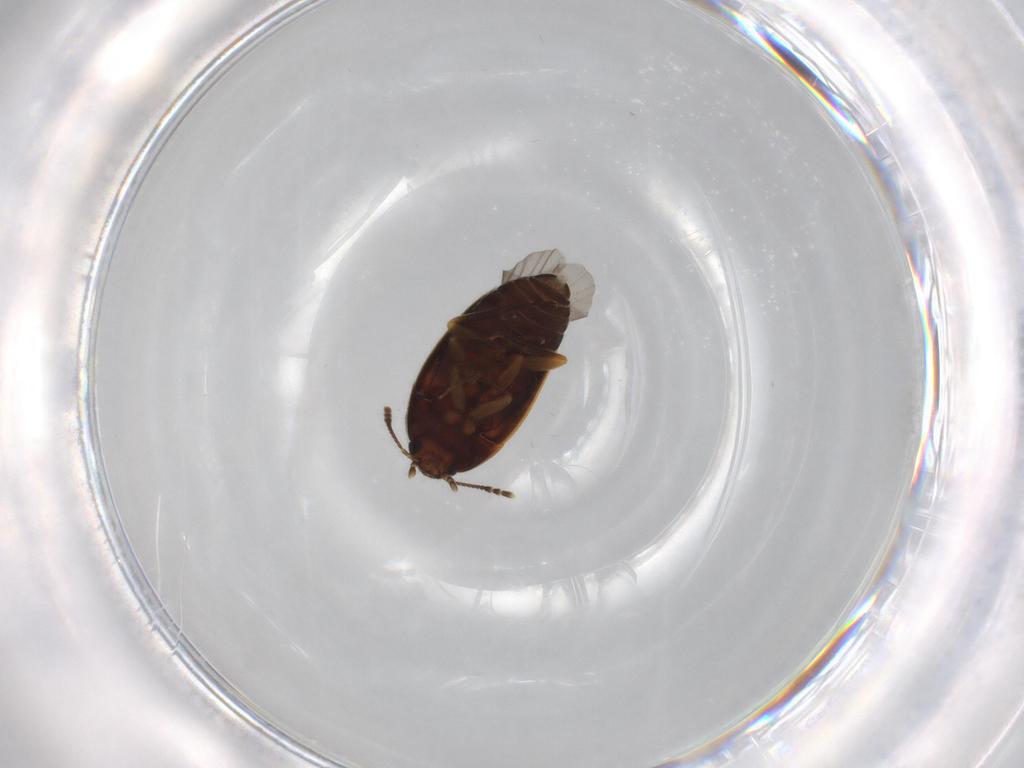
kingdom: Animalia
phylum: Arthropoda
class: Insecta
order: Coleoptera
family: Mycetophagidae
